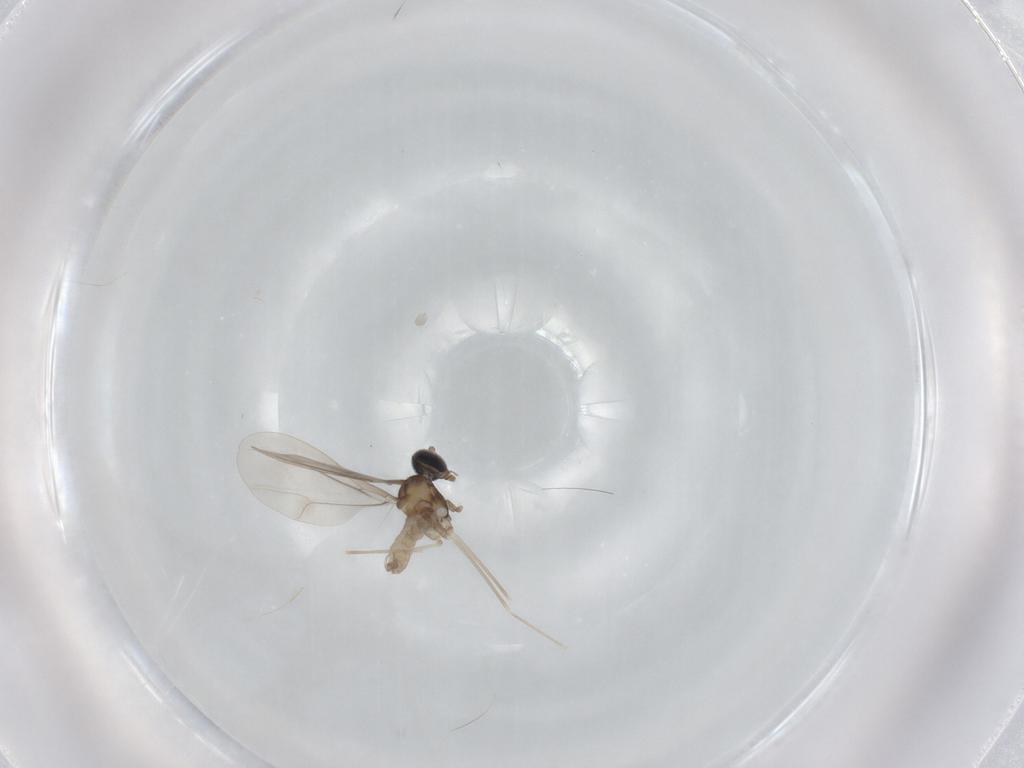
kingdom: Animalia
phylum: Arthropoda
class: Insecta
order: Diptera
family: Chironomidae
